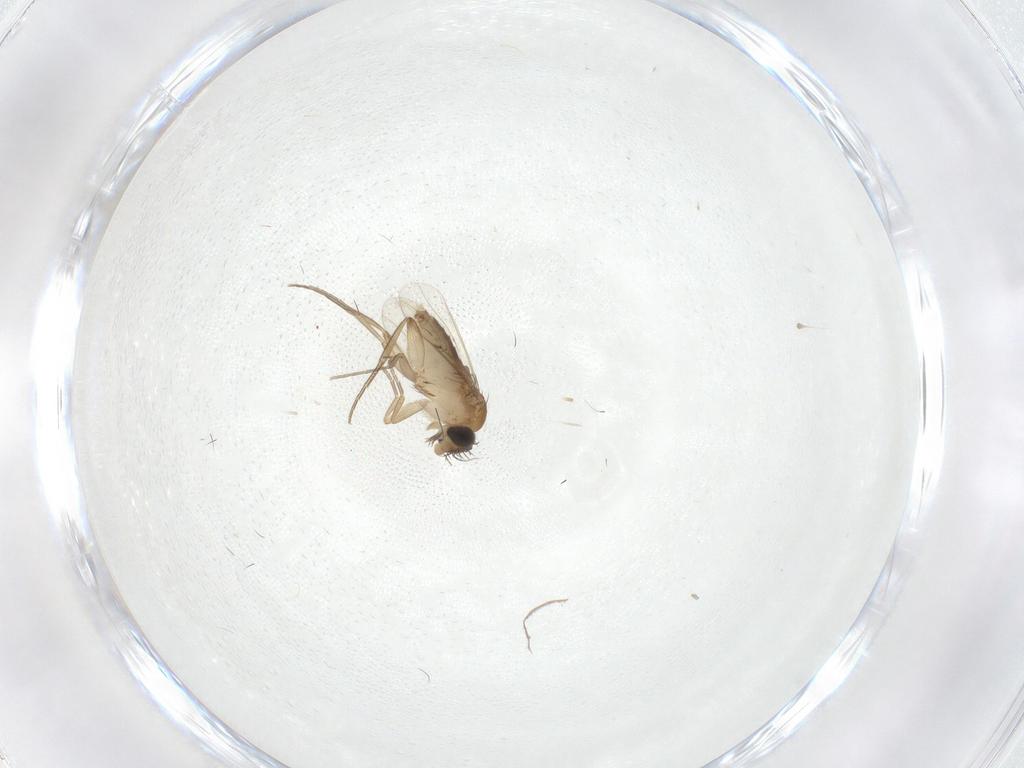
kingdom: Animalia
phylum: Arthropoda
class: Insecta
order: Diptera
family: Phoridae
